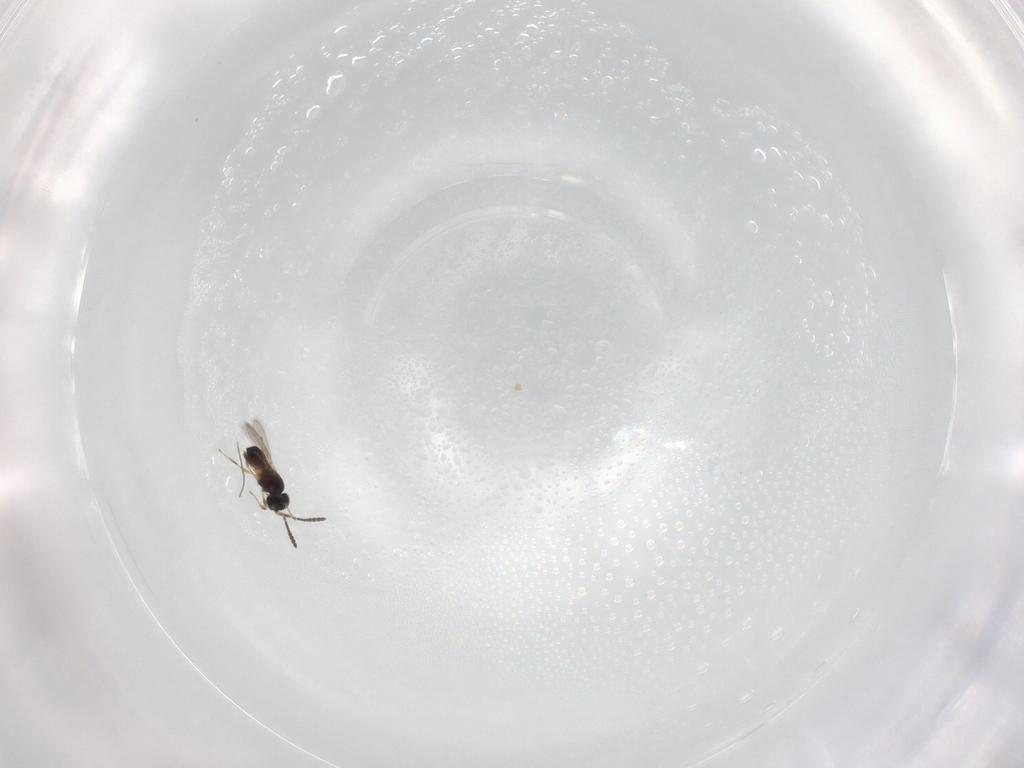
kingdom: Animalia
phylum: Arthropoda
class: Insecta
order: Hymenoptera
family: Scelionidae
